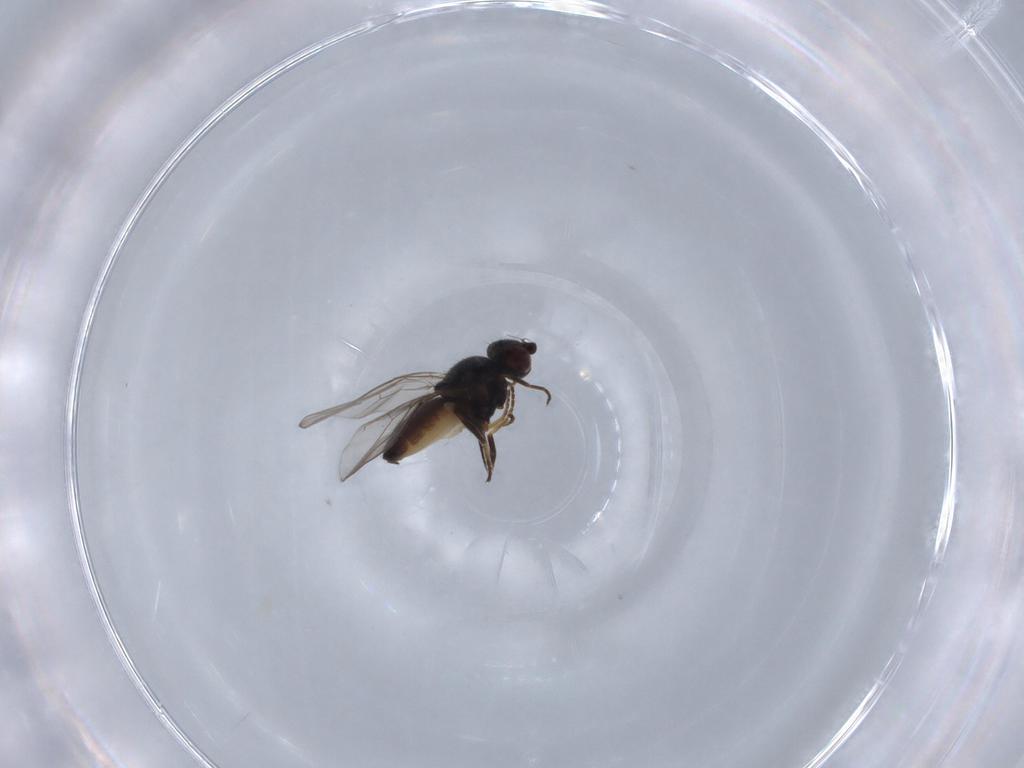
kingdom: Animalia
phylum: Arthropoda
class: Insecta
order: Diptera
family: Chloropidae
